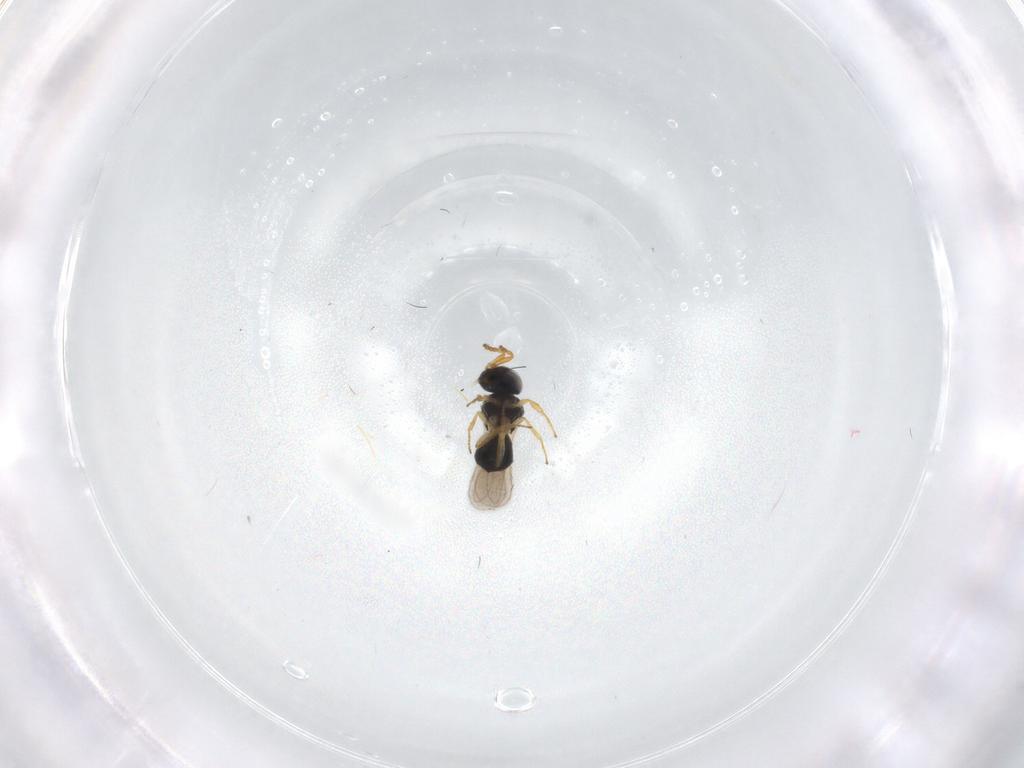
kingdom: Animalia
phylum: Arthropoda
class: Insecta
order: Hymenoptera
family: Scelionidae
